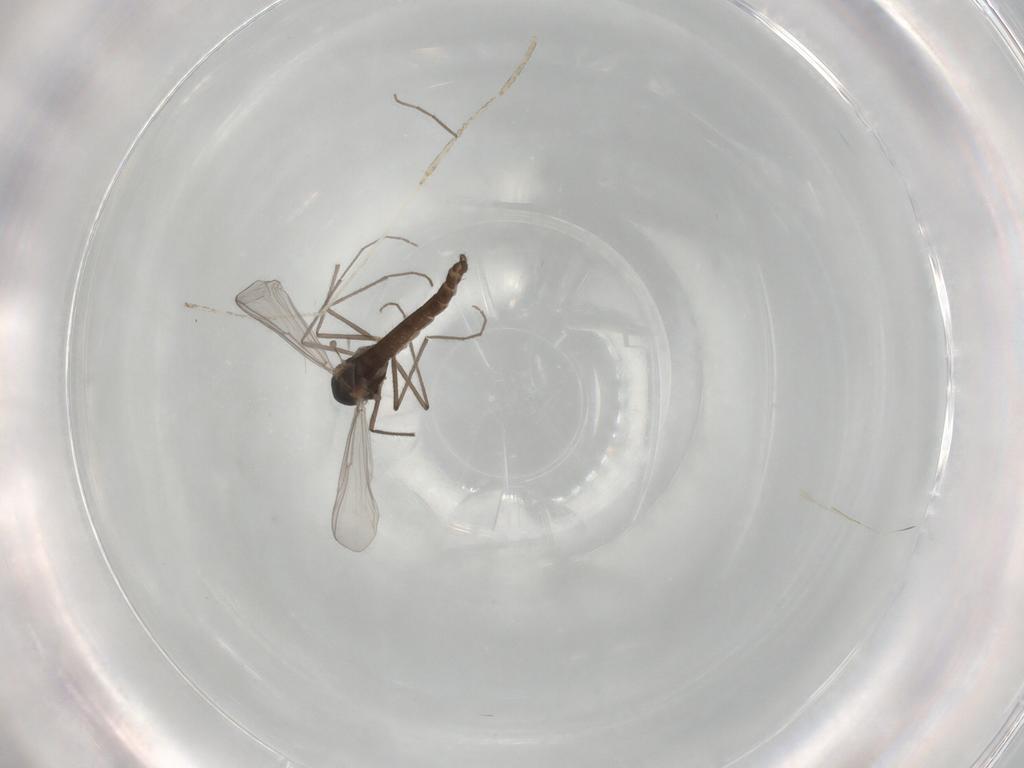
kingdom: Animalia
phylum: Arthropoda
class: Insecta
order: Diptera
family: Chironomidae
